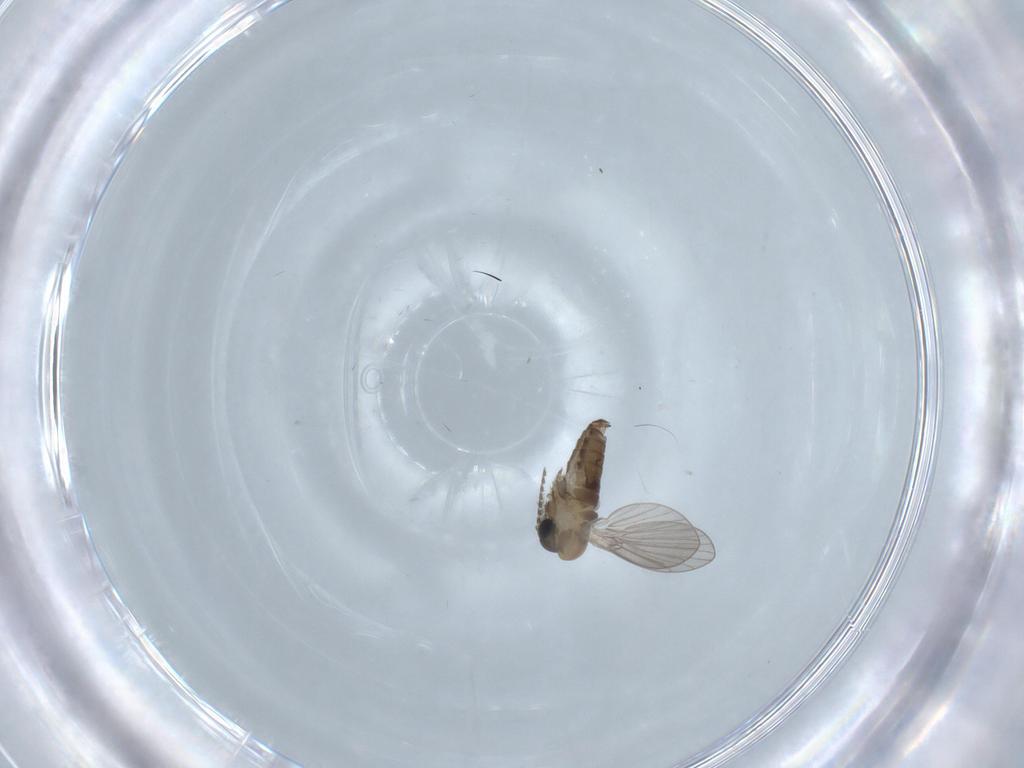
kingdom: Animalia
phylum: Arthropoda
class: Insecta
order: Diptera
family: Psychodidae
